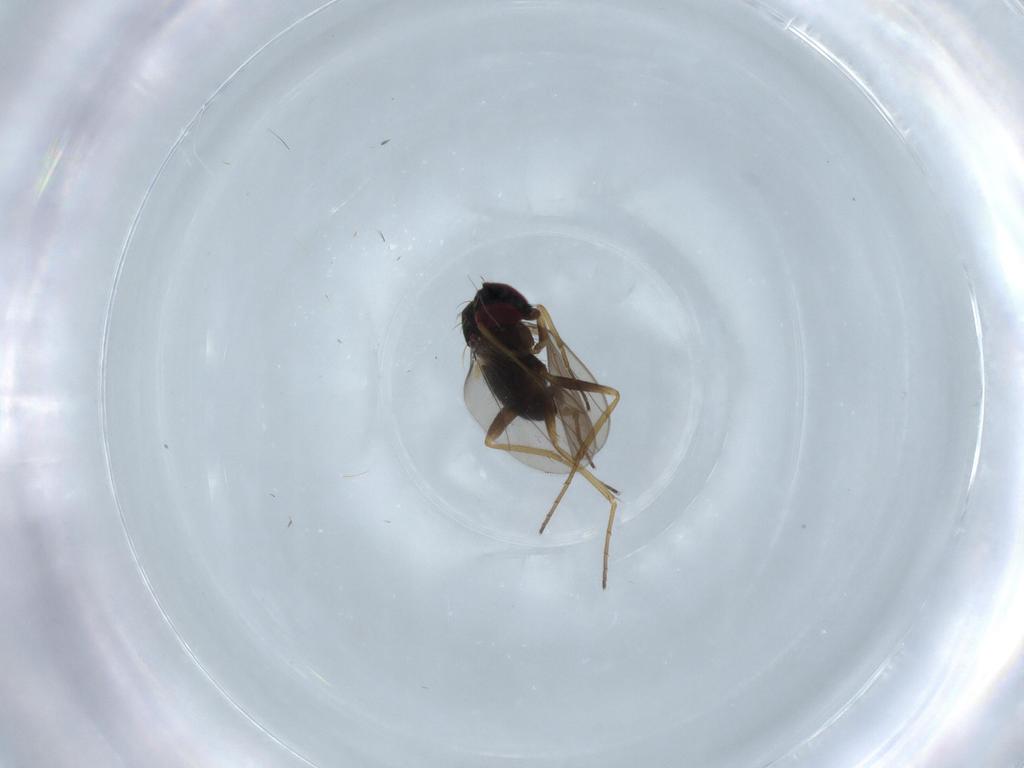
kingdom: Animalia
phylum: Arthropoda
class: Insecta
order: Diptera
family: Dolichopodidae
